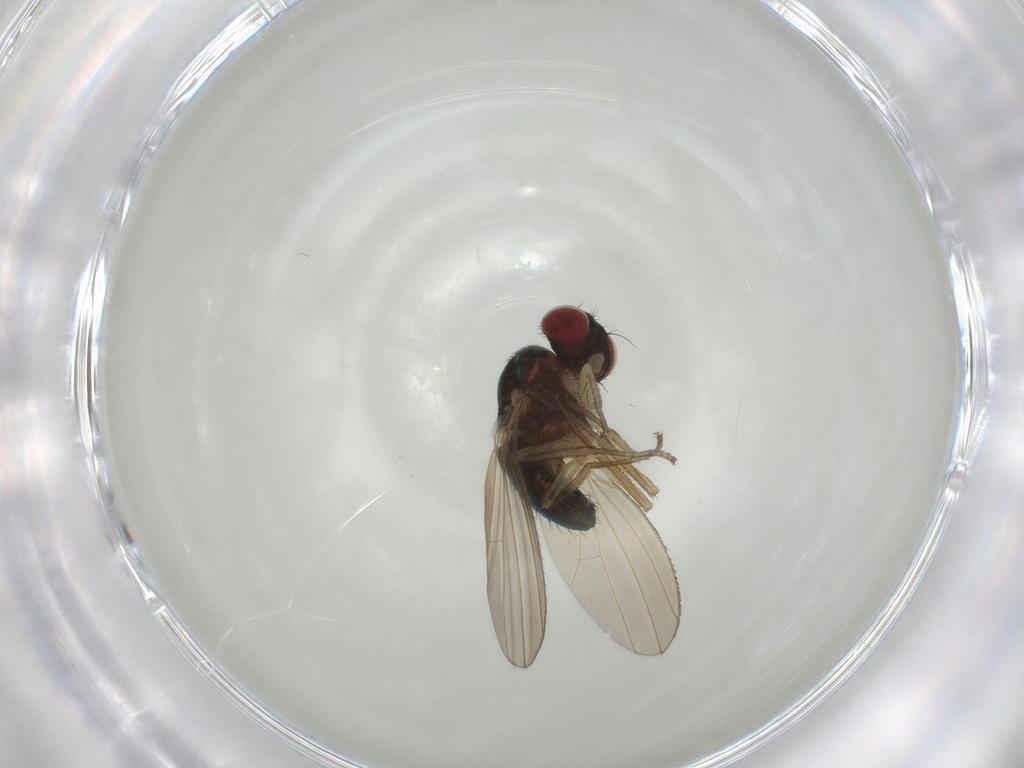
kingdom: Animalia
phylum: Arthropoda
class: Insecta
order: Diptera
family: Camillidae
